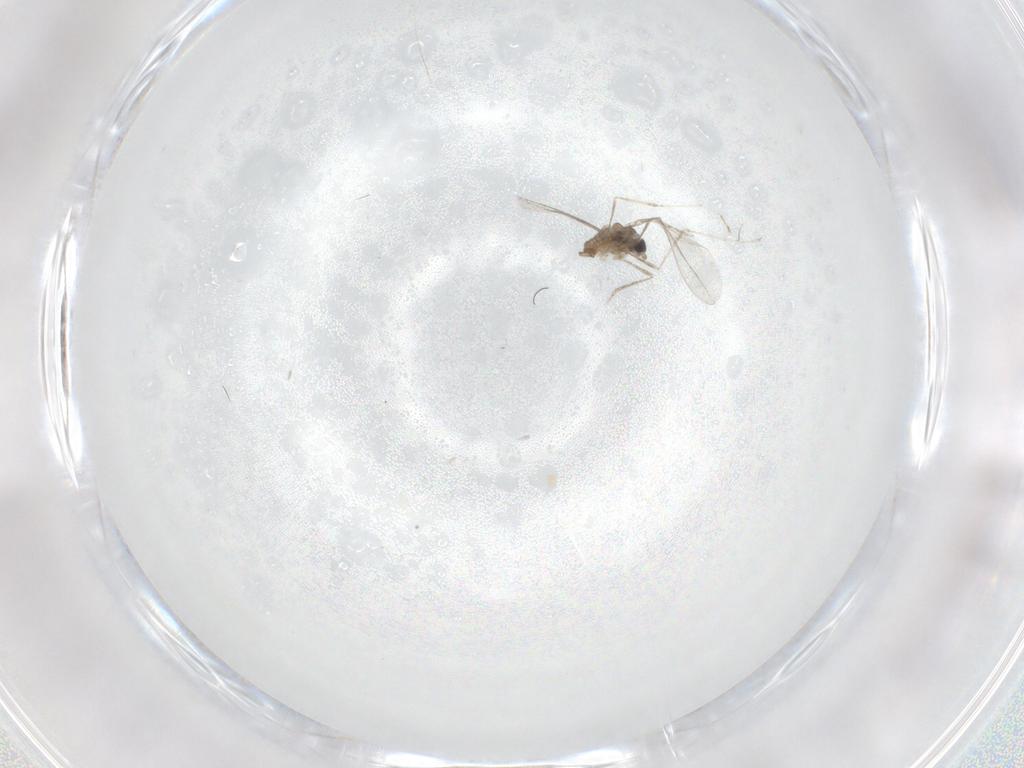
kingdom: Animalia
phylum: Arthropoda
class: Insecta
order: Diptera
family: Cecidomyiidae
